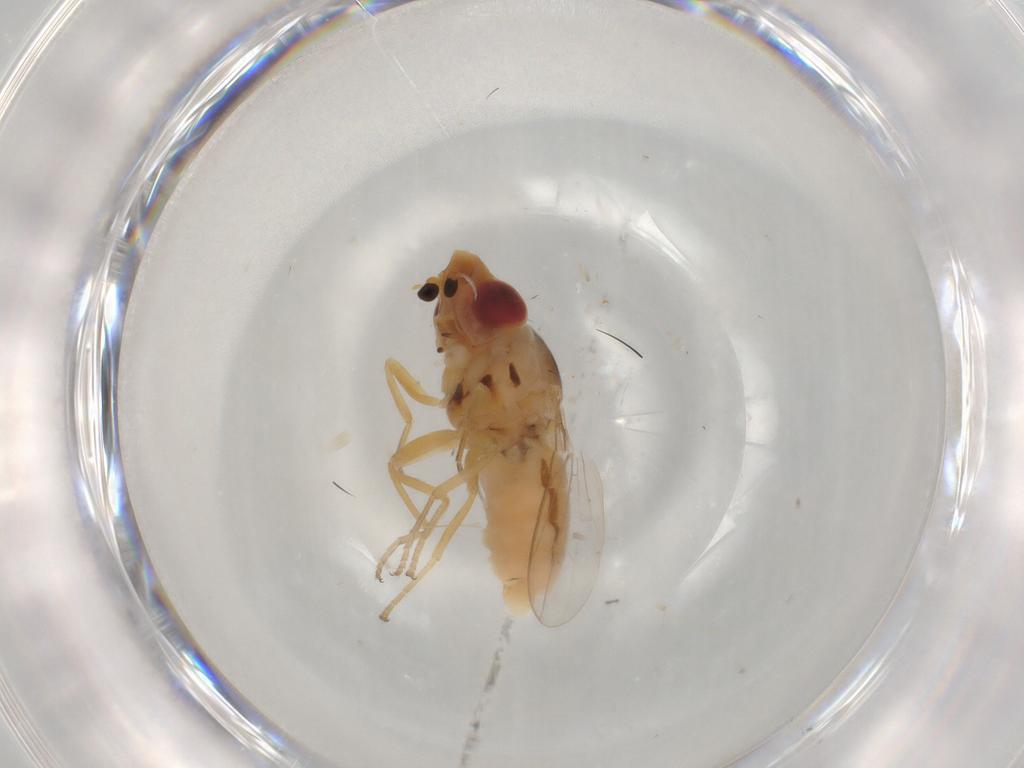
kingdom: Animalia
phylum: Arthropoda
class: Insecta
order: Diptera
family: Chloropidae
